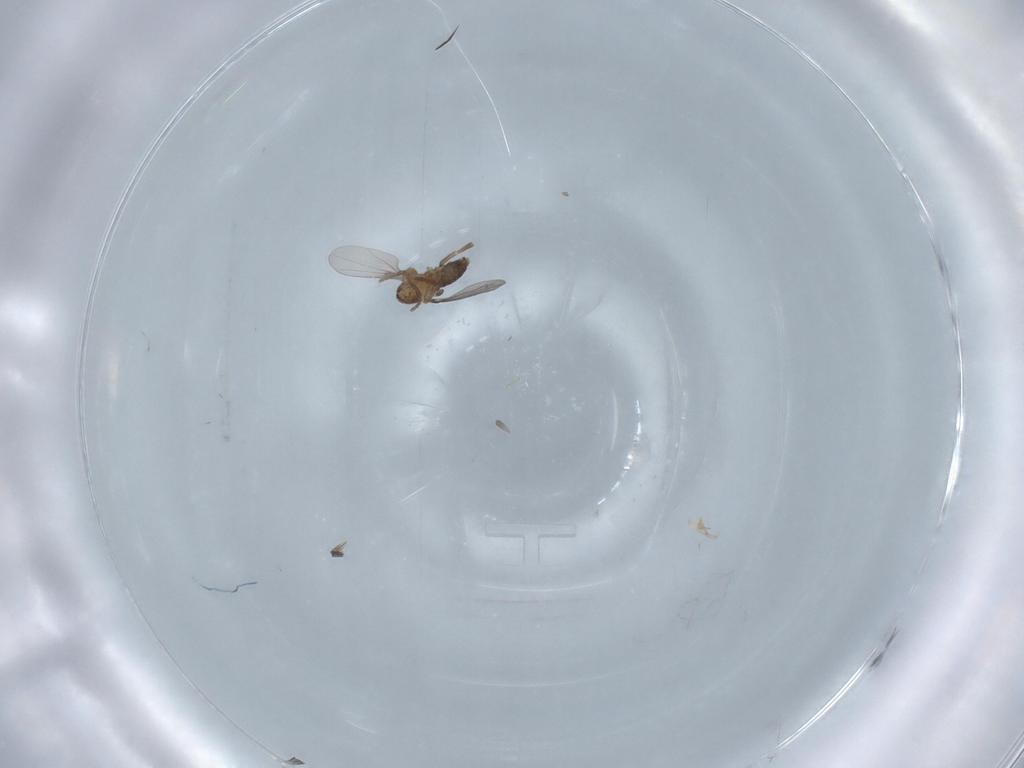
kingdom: Animalia
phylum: Arthropoda
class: Insecta
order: Diptera
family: Phoridae
